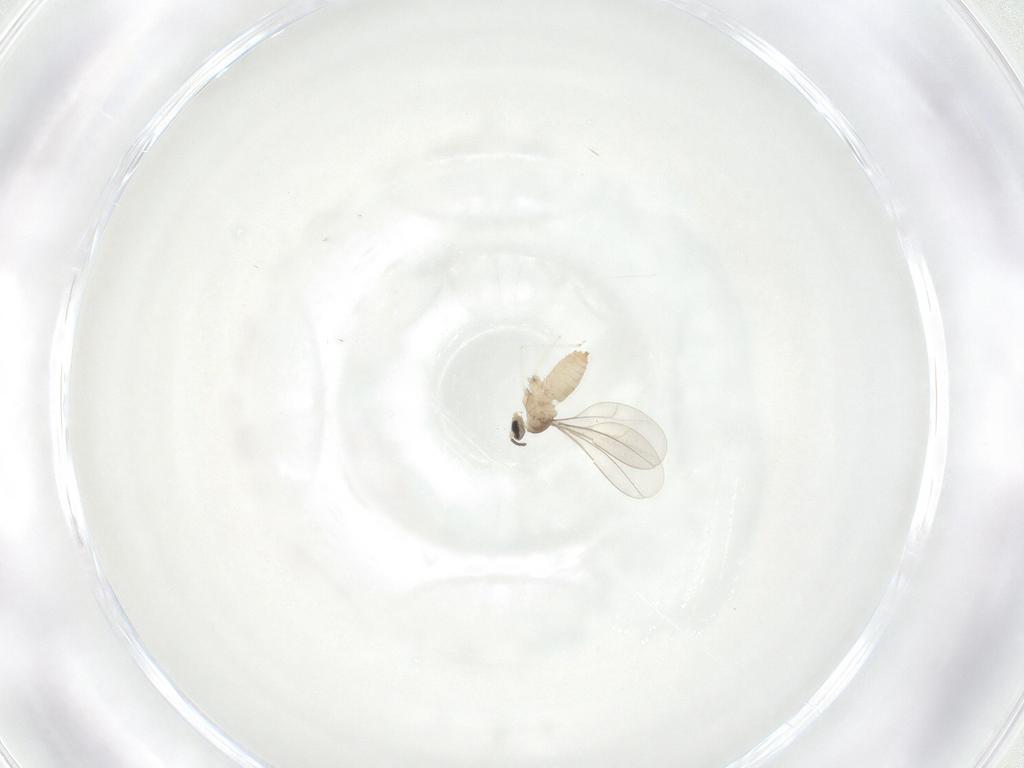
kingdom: Animalia
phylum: Arthropoda
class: Insecta
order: Diptera
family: Cecidomyiidae
